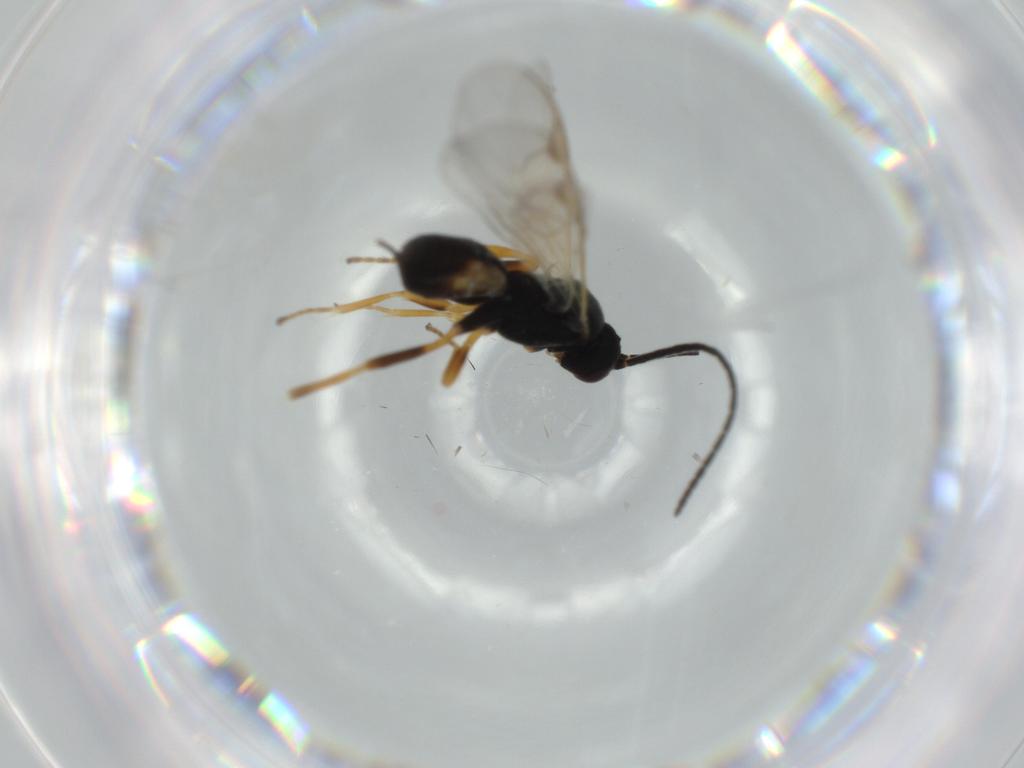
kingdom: Animalia
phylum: Arthropoda
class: Insecta
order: Hymenoptera
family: Braconidae
